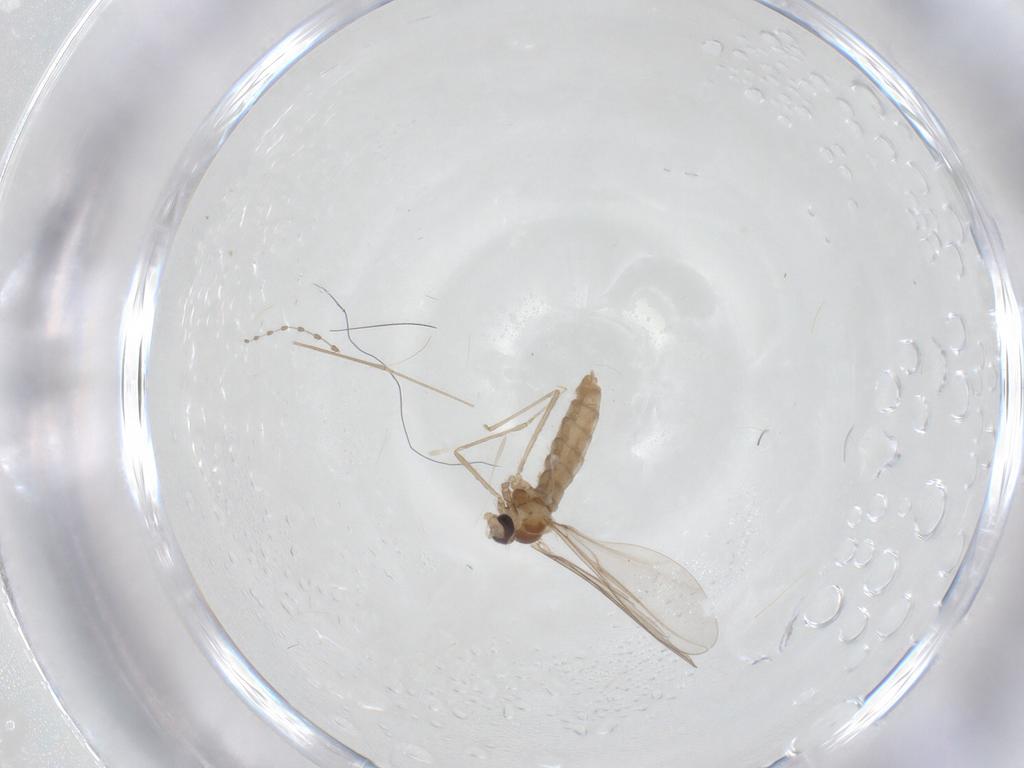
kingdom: Animalia
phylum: Arthropoda
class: Insecta
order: Diptera
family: Cecidomyiidae
